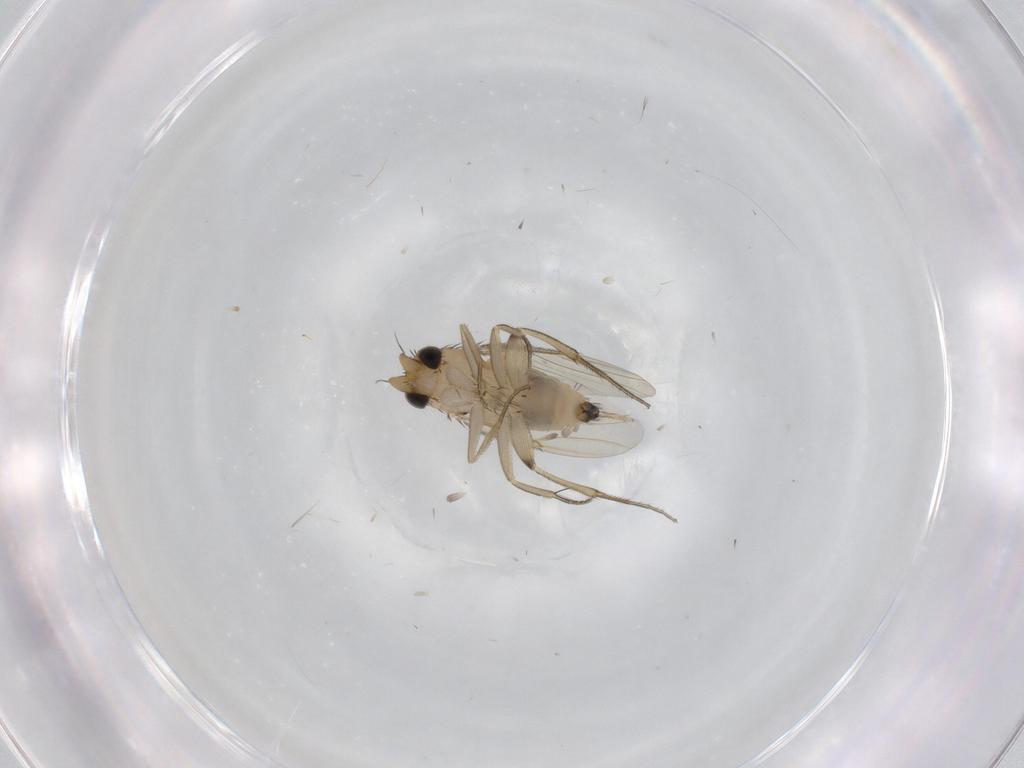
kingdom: Animalia
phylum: Arthropoda
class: Insecta
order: Diptera
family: Phoridae
